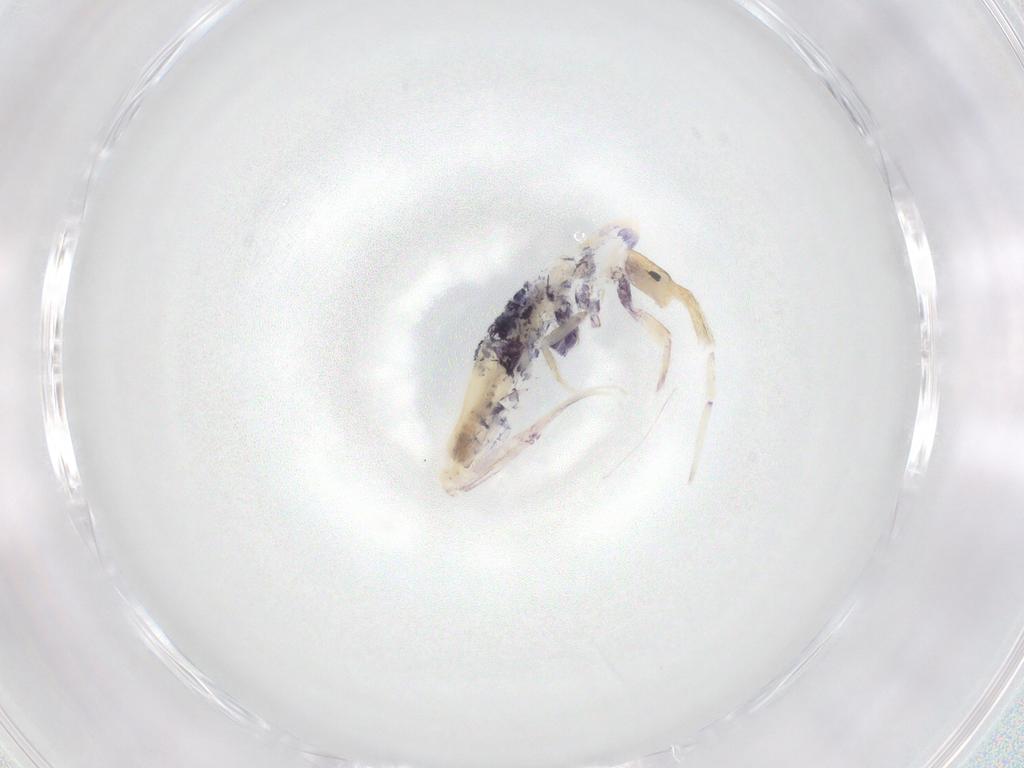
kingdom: Animalia
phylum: Arthropoda
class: Collembola
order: Entomobryomorpha
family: Entomobryidae
